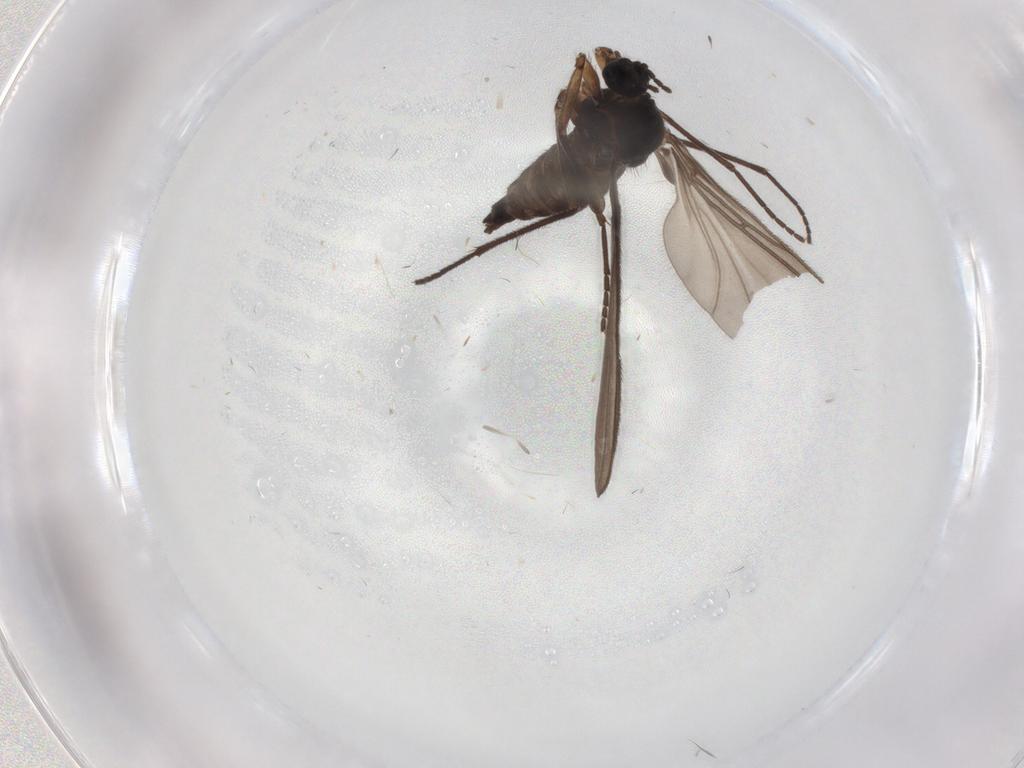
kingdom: Animalia
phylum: Arthropoda
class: Insecta
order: Diptera
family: Sciaridae
